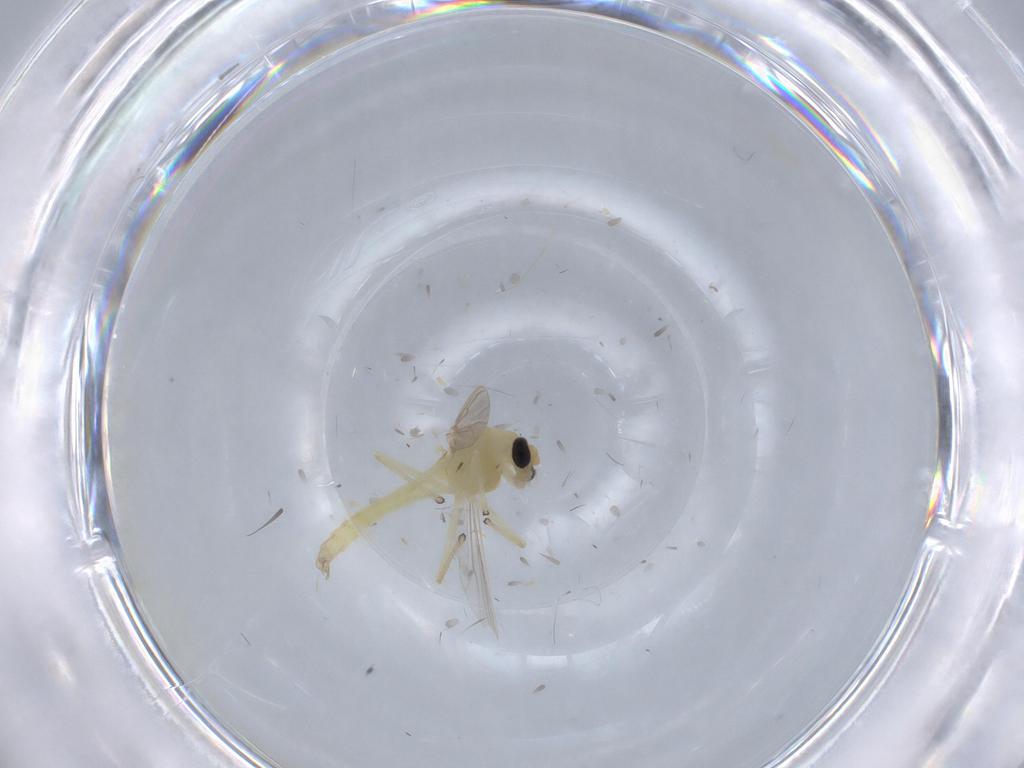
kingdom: Animalia
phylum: Arthropoda
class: Insecta
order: Diptera
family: Chironomidae
